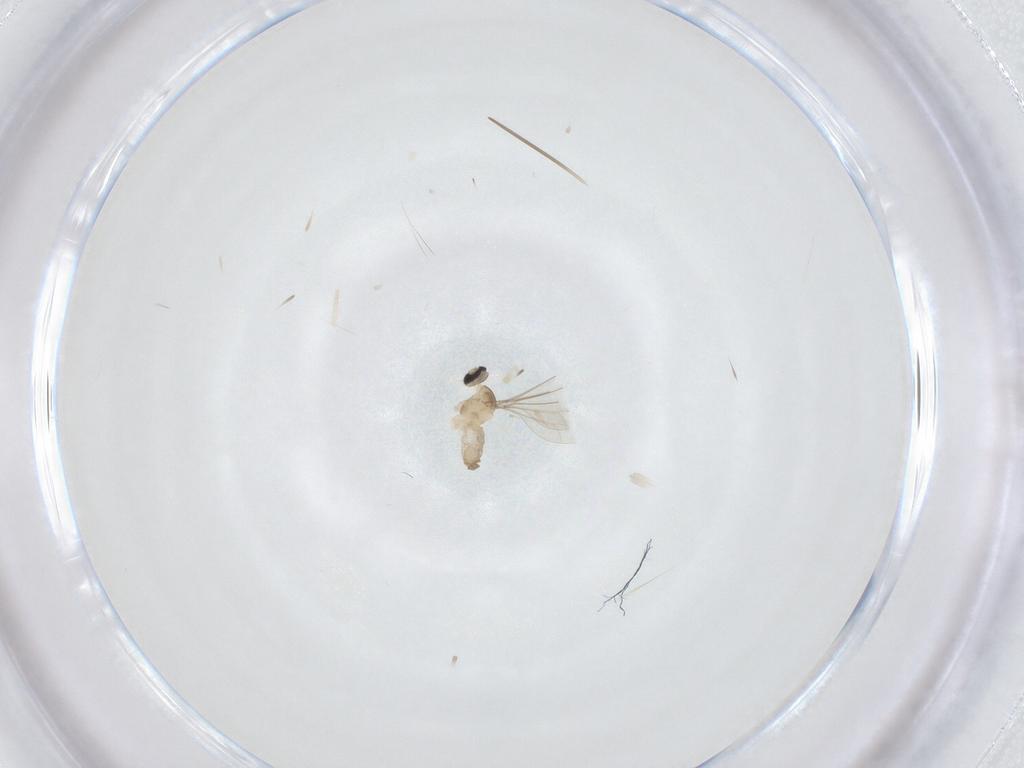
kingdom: Animalia
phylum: Arthropoda
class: Insecta
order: Diptera
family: Cecidomyiidae
